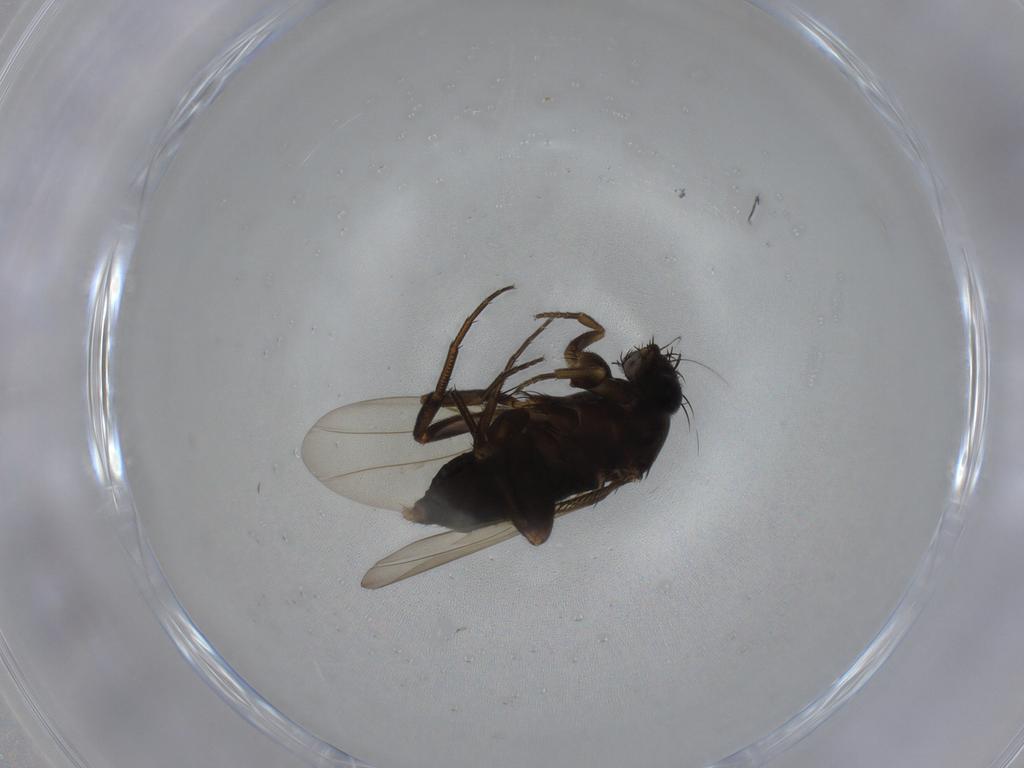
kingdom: Animalia
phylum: Arthropoda
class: Insecta
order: Diptera
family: Phoridae
